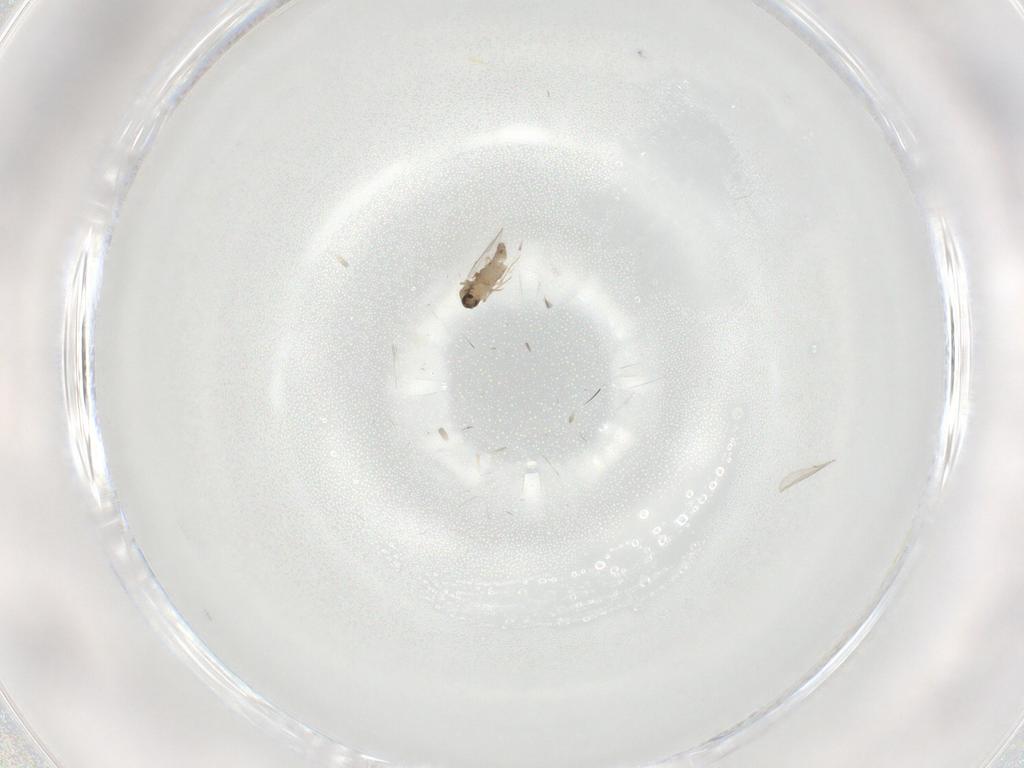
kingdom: Animalia
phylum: Arthropoda
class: Insecta
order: Diptera
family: Ceratopogonidae
